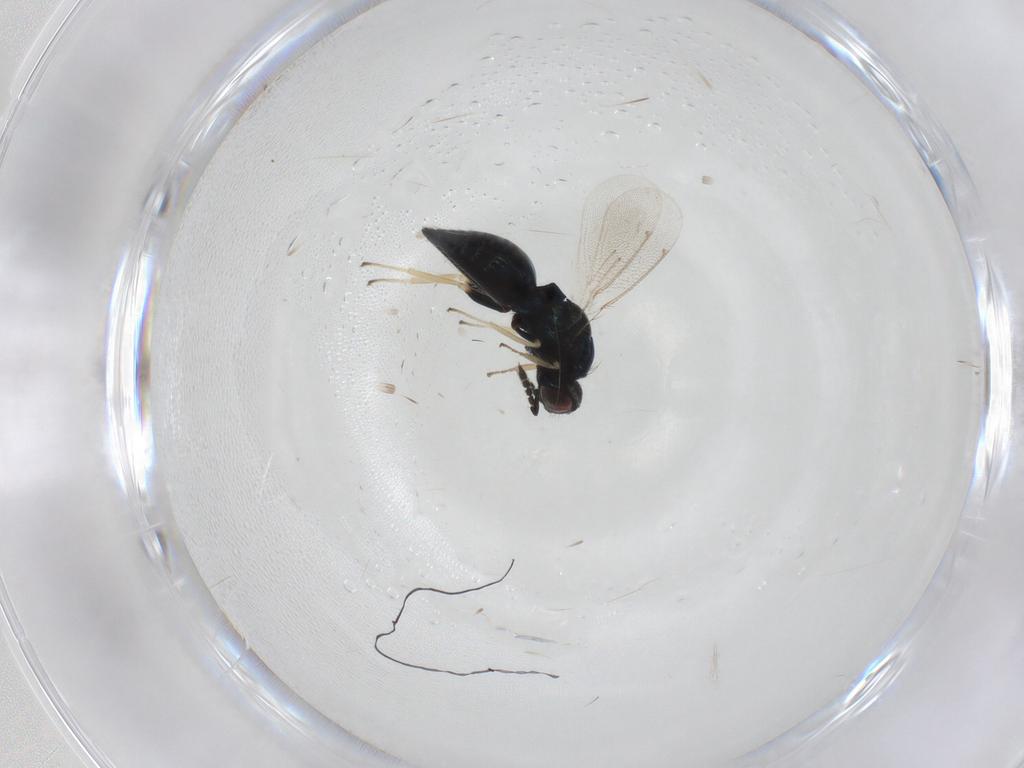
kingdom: Animalia
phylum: Arthropoda
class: Insecta
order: Hymenoptera
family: Eulophidae
